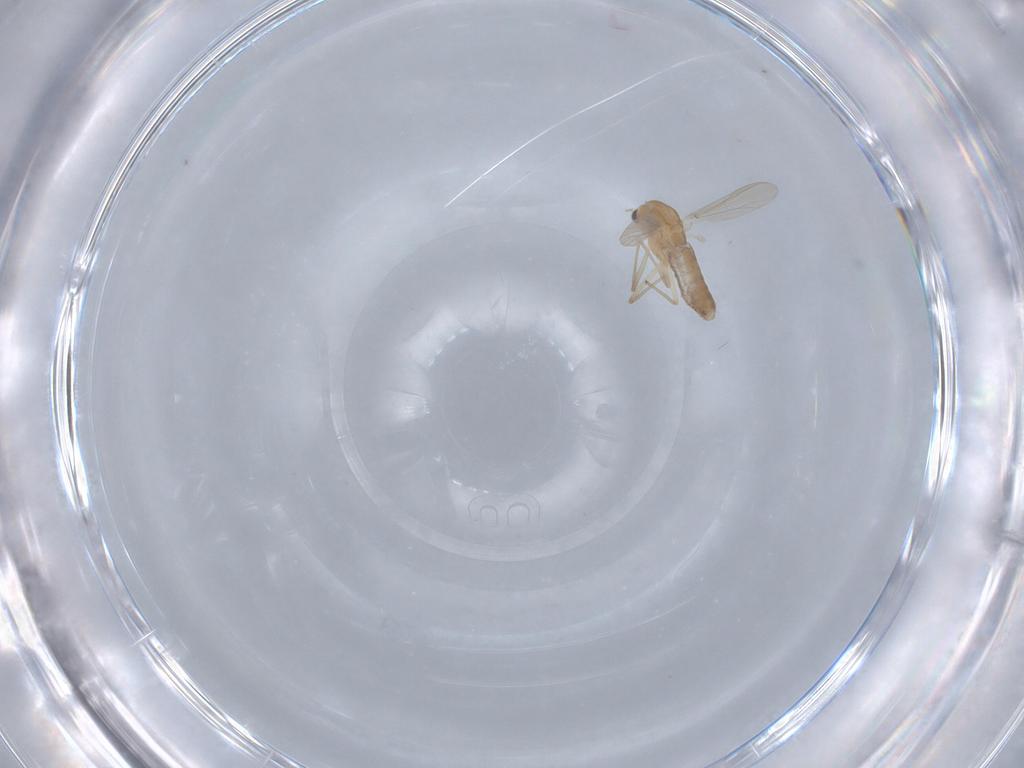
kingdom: Animalia
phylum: Arthropoda
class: Insecta
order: Diptera
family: Chironomidae
